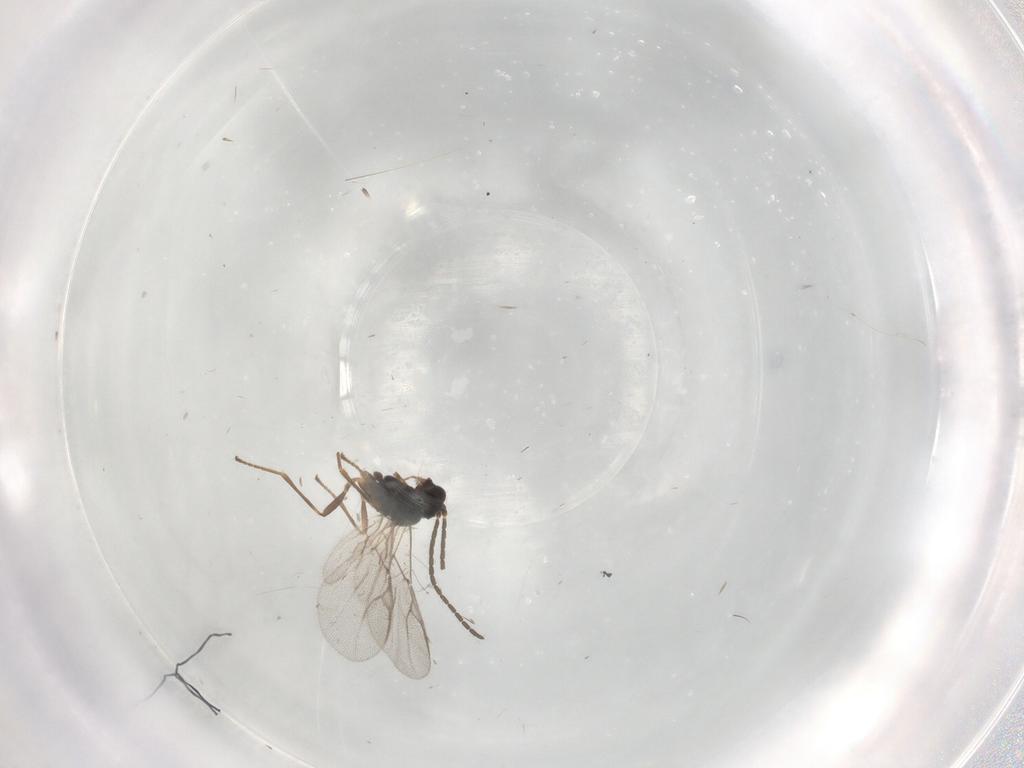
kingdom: Animalia
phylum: Arthropoda
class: Insecta
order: Hymenoptera
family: Braconidae
